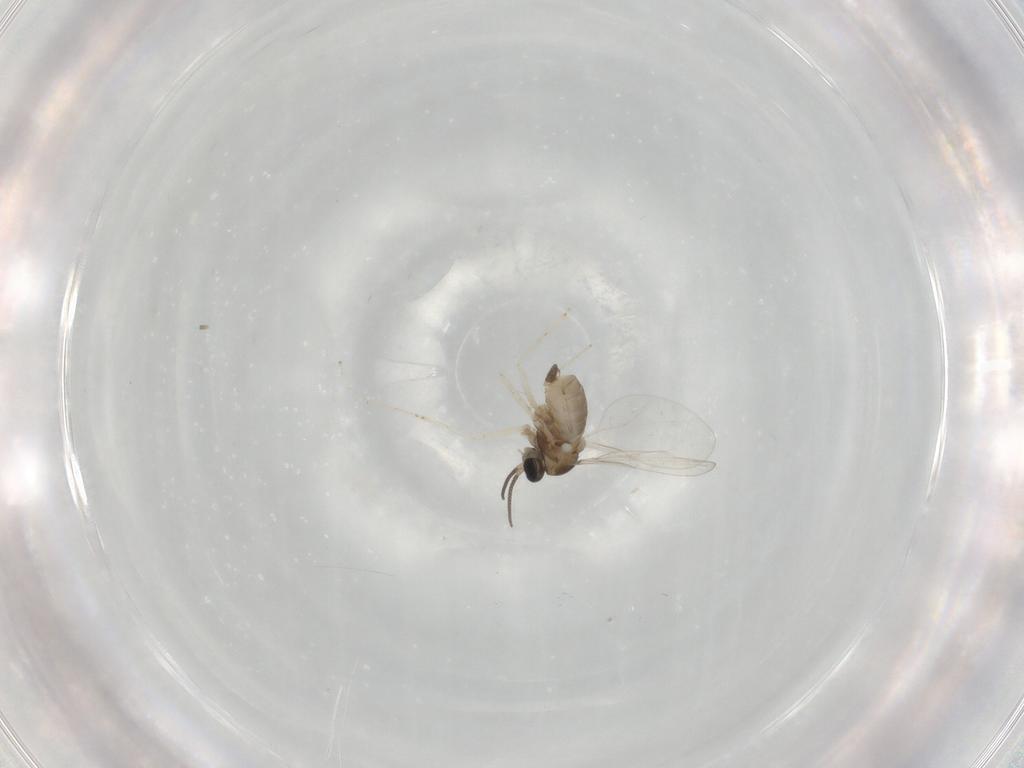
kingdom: Animalia
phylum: Arthropoda
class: Insecta
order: Diptera
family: Cecidomyiidae
